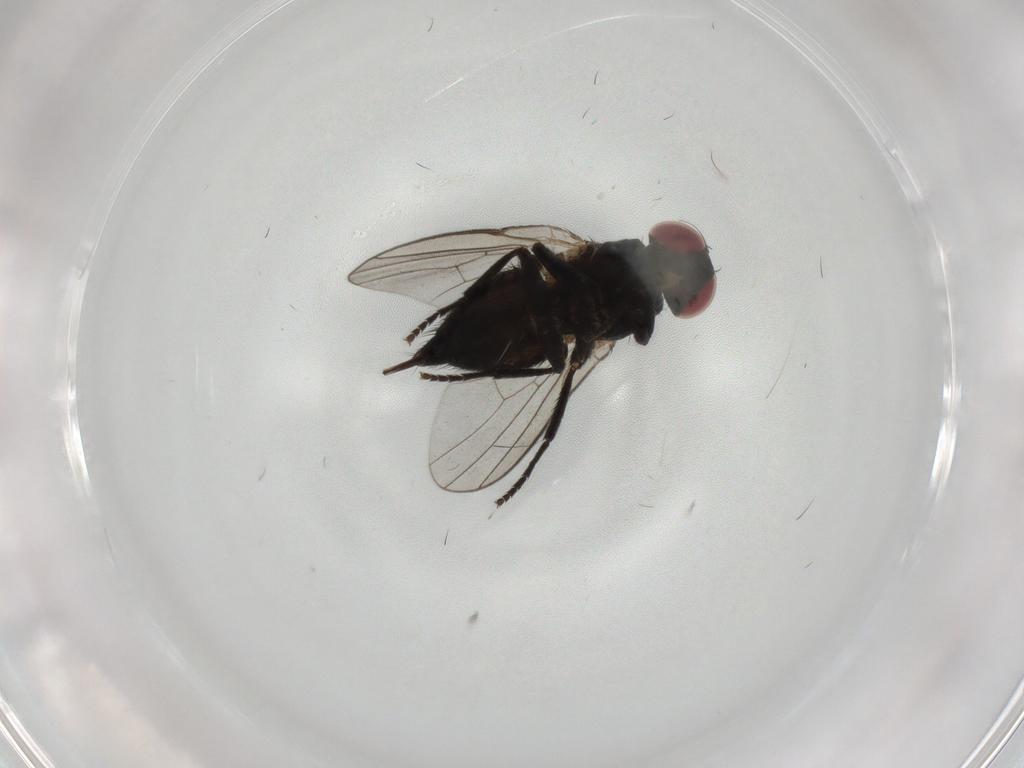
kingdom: Animalia
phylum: Arthropoda
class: Insecta
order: Diptera
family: Agromyzidae
